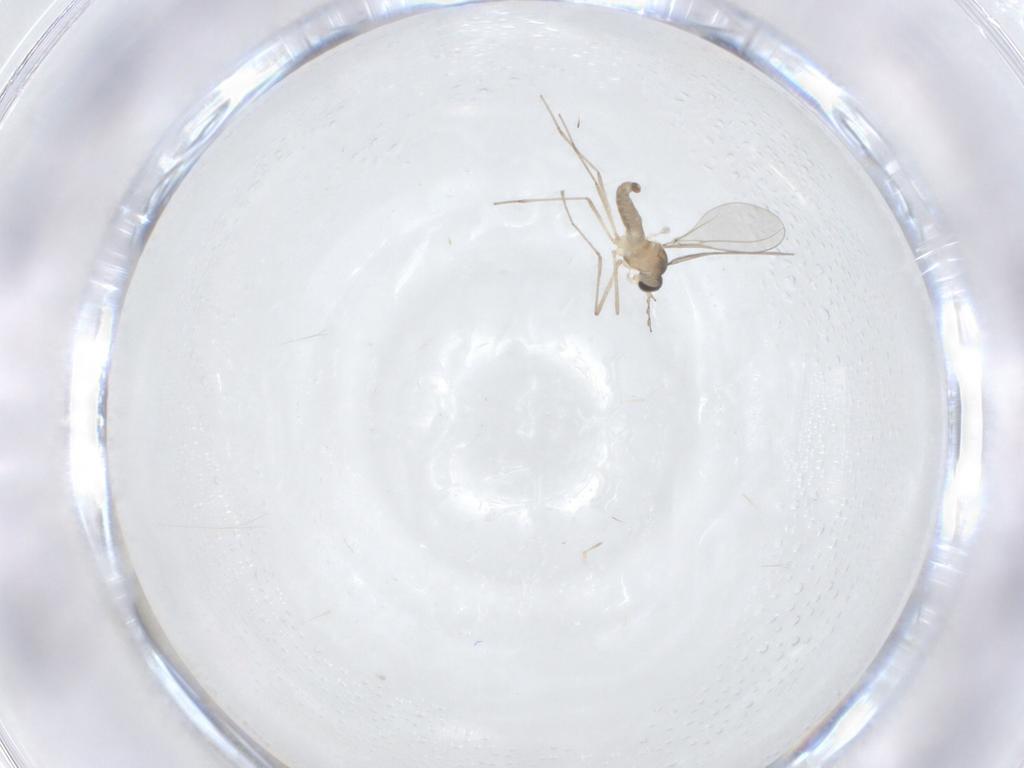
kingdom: Animalia
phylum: Arthropoda
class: Insecta
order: Diptera
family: Cecidomyiidae
